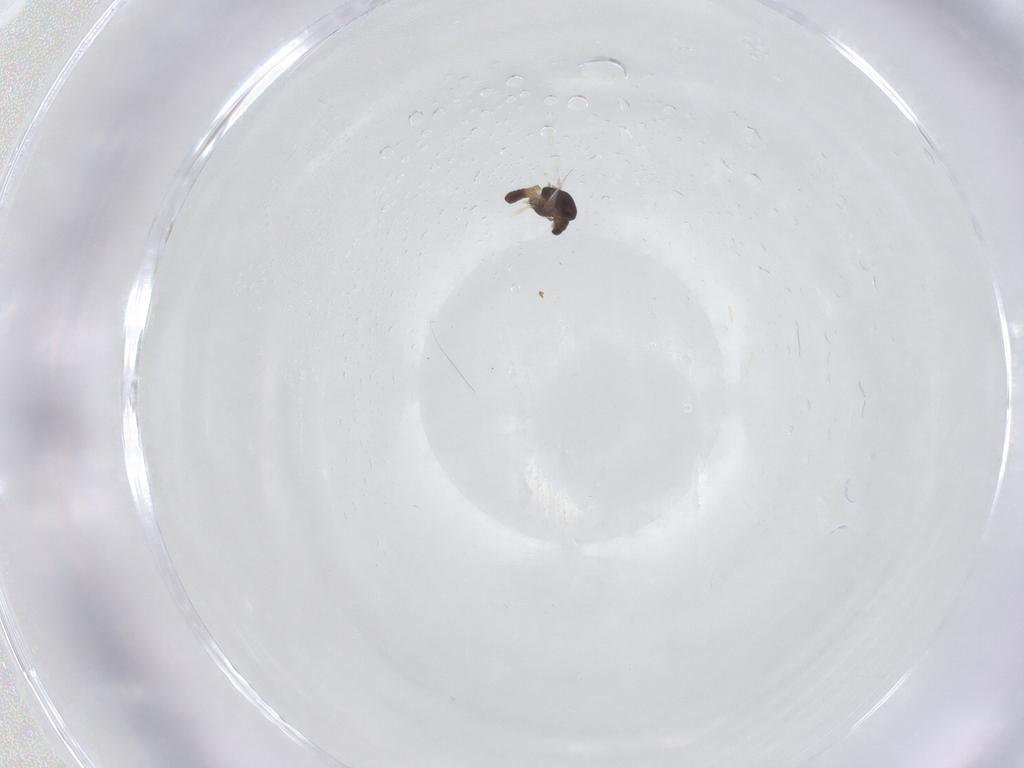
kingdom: Animalia
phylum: Arthropoda
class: Insecta
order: Diptera
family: Chironomidae
